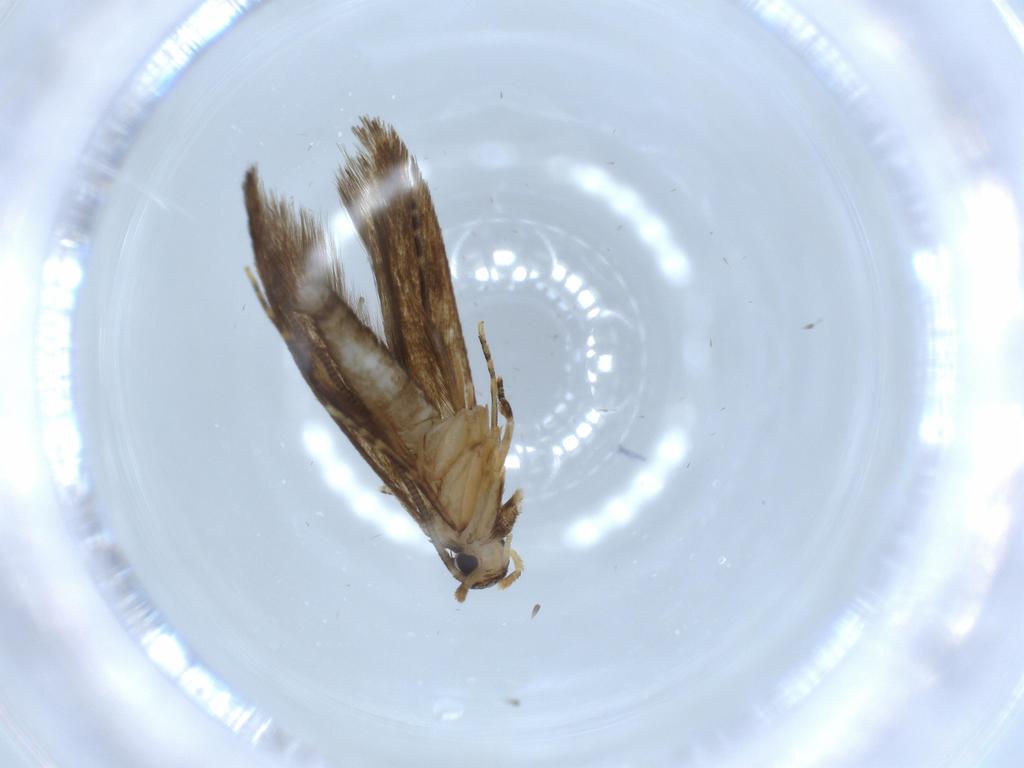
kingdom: Animalia
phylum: Arthropoda
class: Insecta
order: Lepidoptera
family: Tineidae
